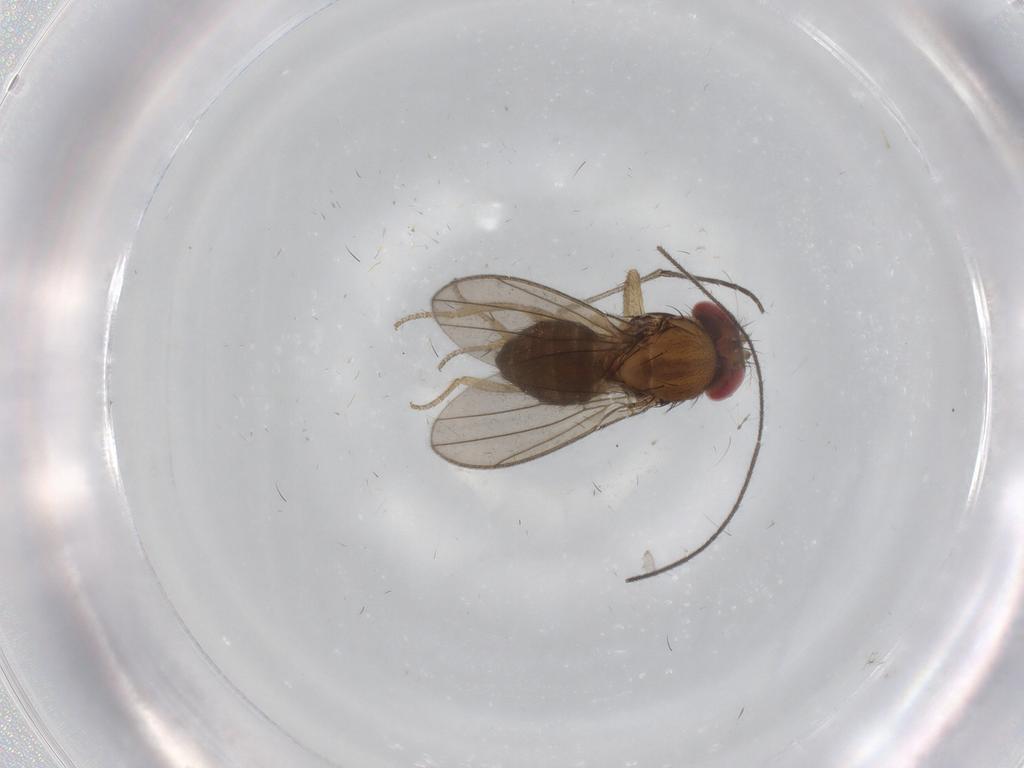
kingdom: Animalia
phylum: Arthropoda
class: Insecta
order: Diptera
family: Drosophilidae
